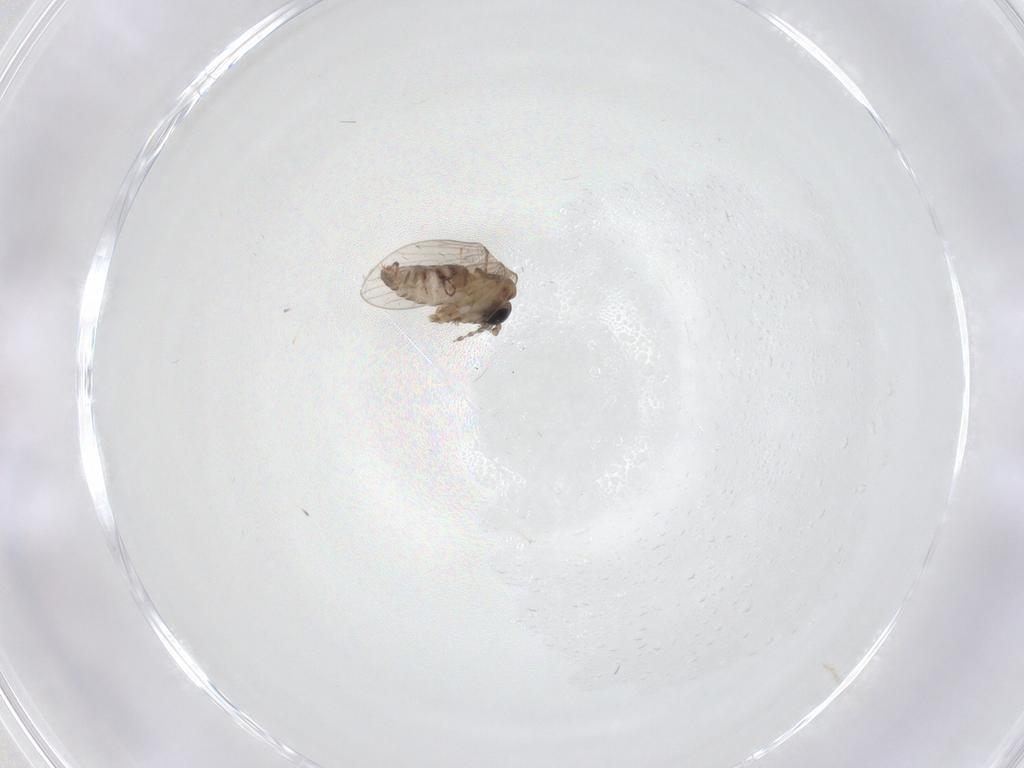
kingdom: Animalia
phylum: Arthropoda
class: Insecta
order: Diptera
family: Psychodidae
